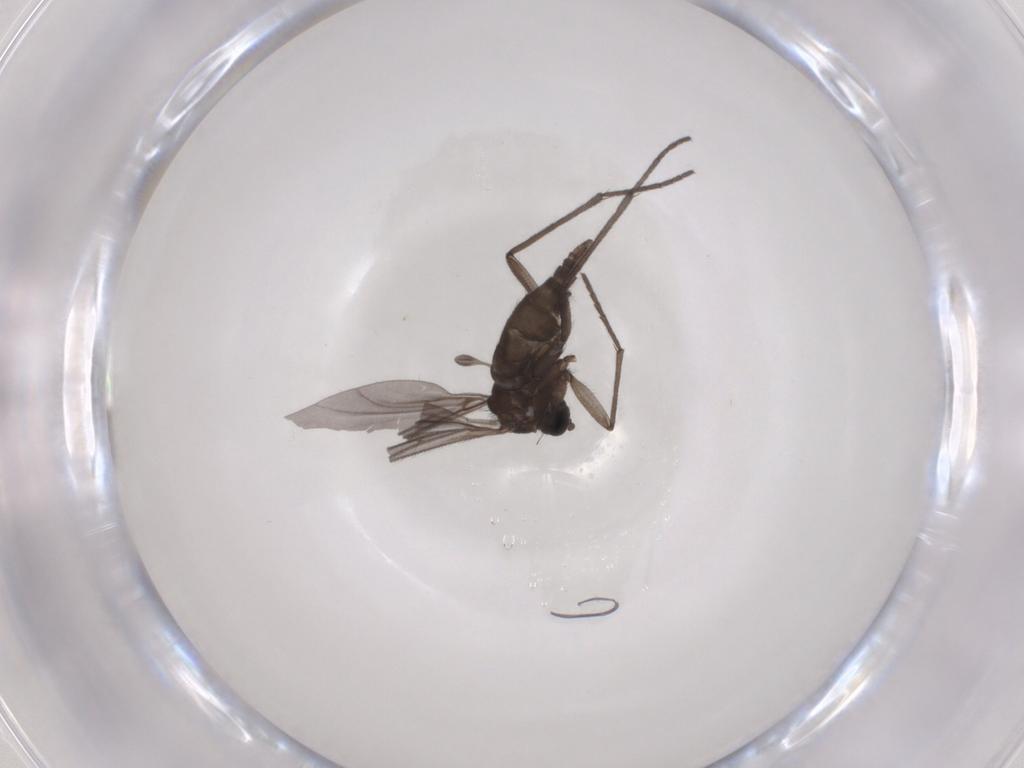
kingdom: Animalia
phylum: Arthropoda
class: Insecta
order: Diptera
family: Sciaridae
